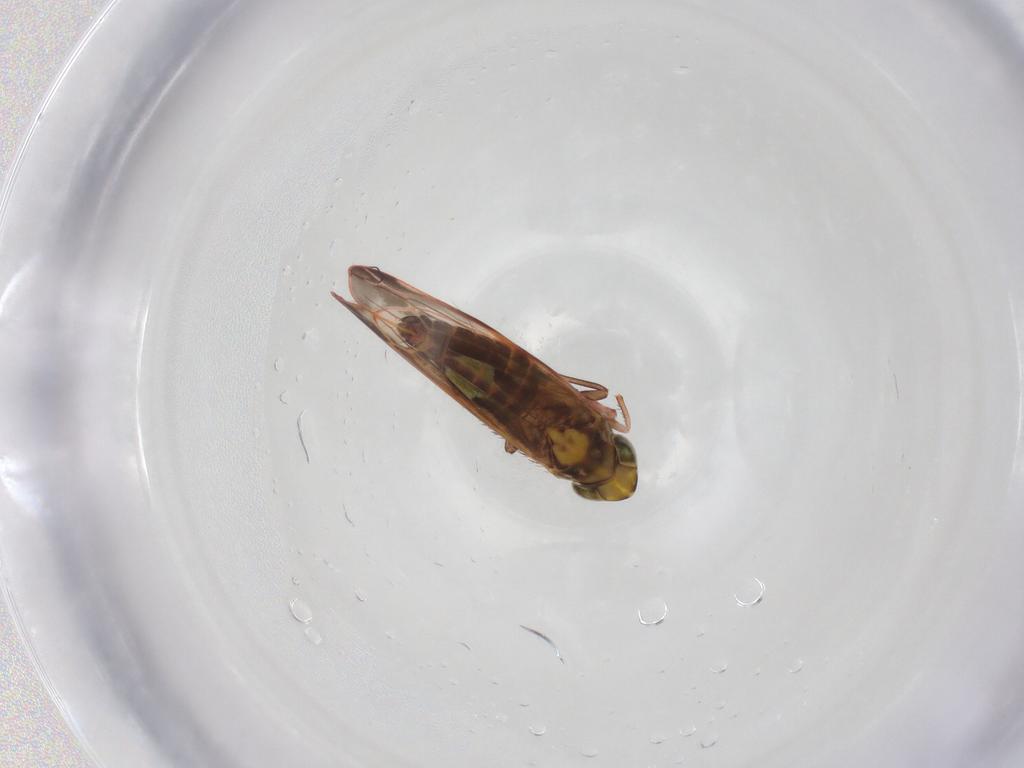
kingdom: Animalia
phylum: Arthropoda
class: Insecta
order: Hemiptera
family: Cicadellidae
